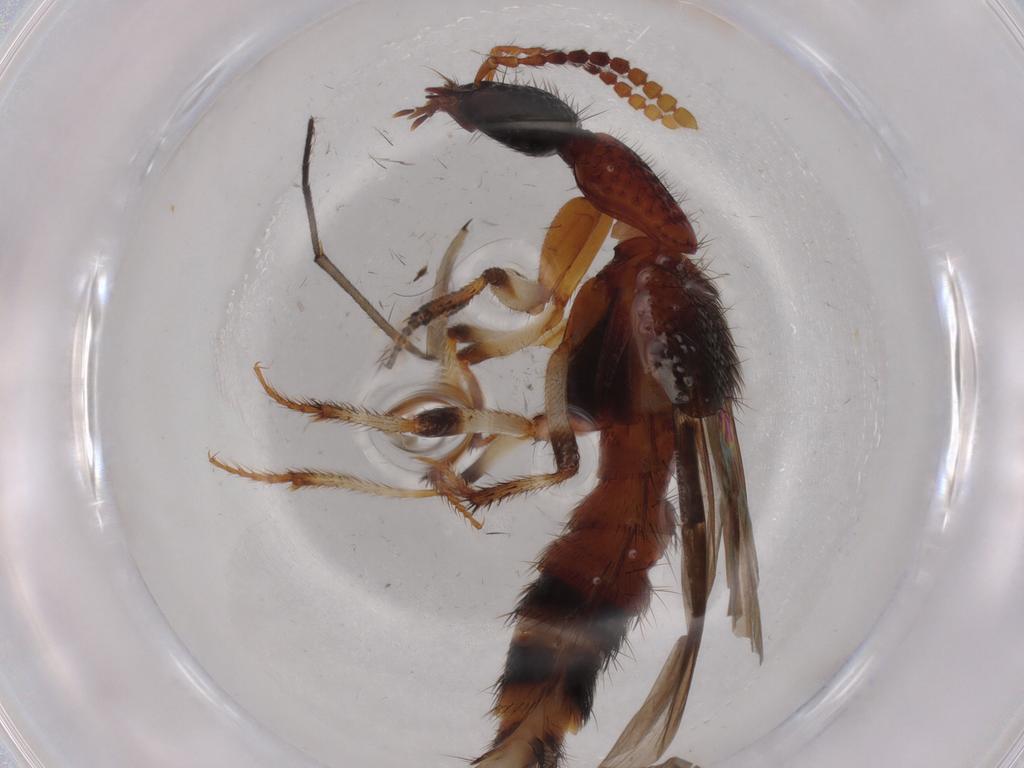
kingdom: Animalia
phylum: Arthropoda
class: Insecta
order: Coleoptera
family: Staphylinidae
